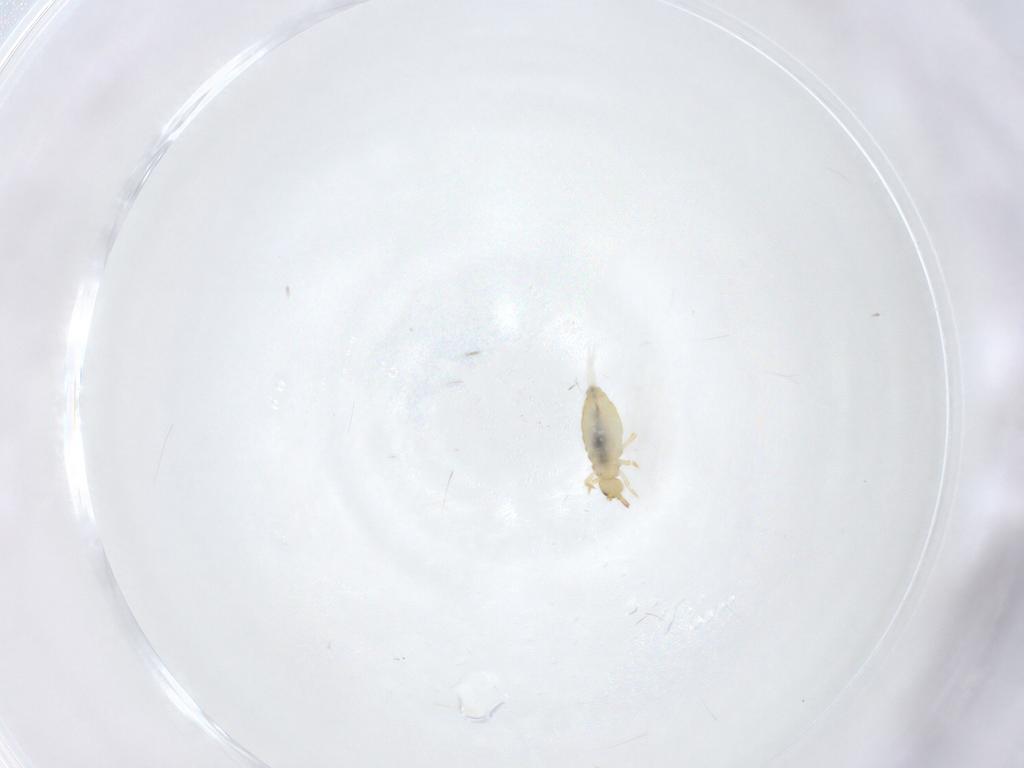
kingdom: Animalia
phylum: Arthropoda
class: Collembola
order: Entomobryomorpha
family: Entomobryidae
